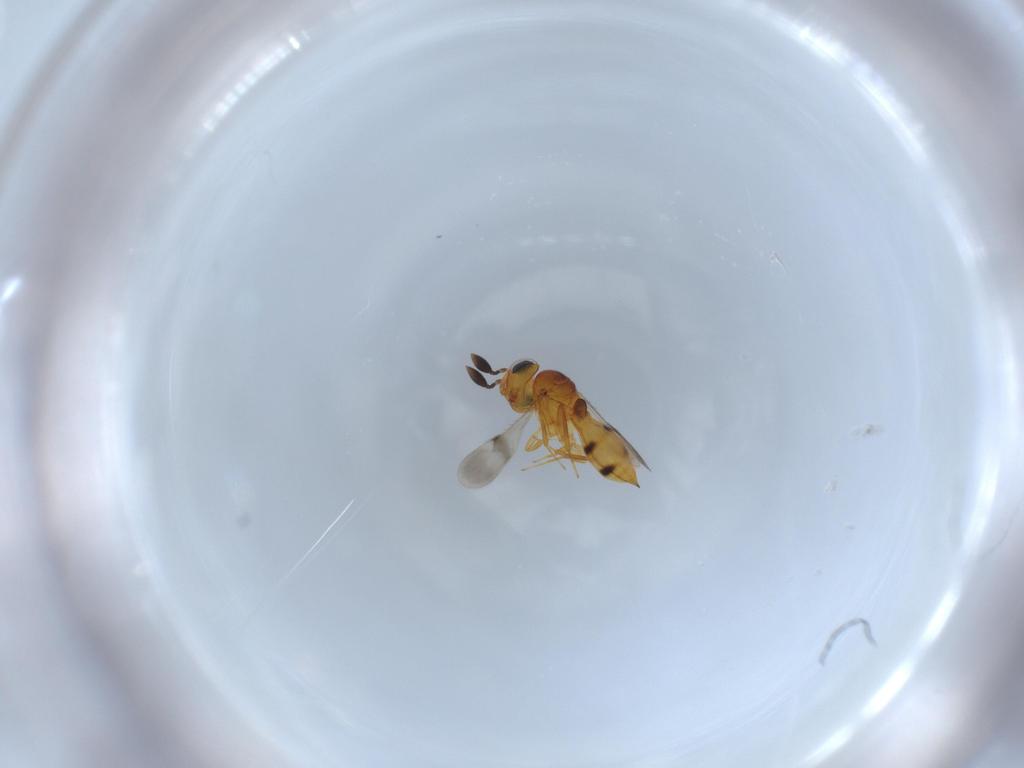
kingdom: Animalia
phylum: Arthropoda
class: Insecta
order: Hymenoptera
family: Scelionidae
